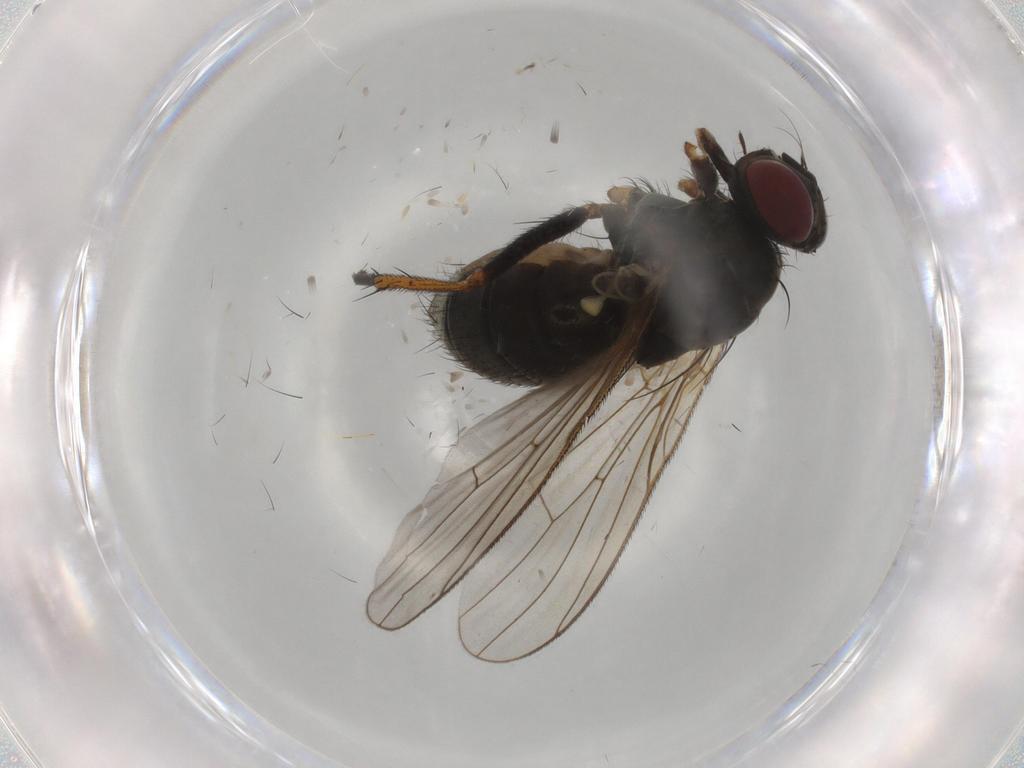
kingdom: Animalia
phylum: Arthropoda
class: Insecta
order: Diptera
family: Muscidae
